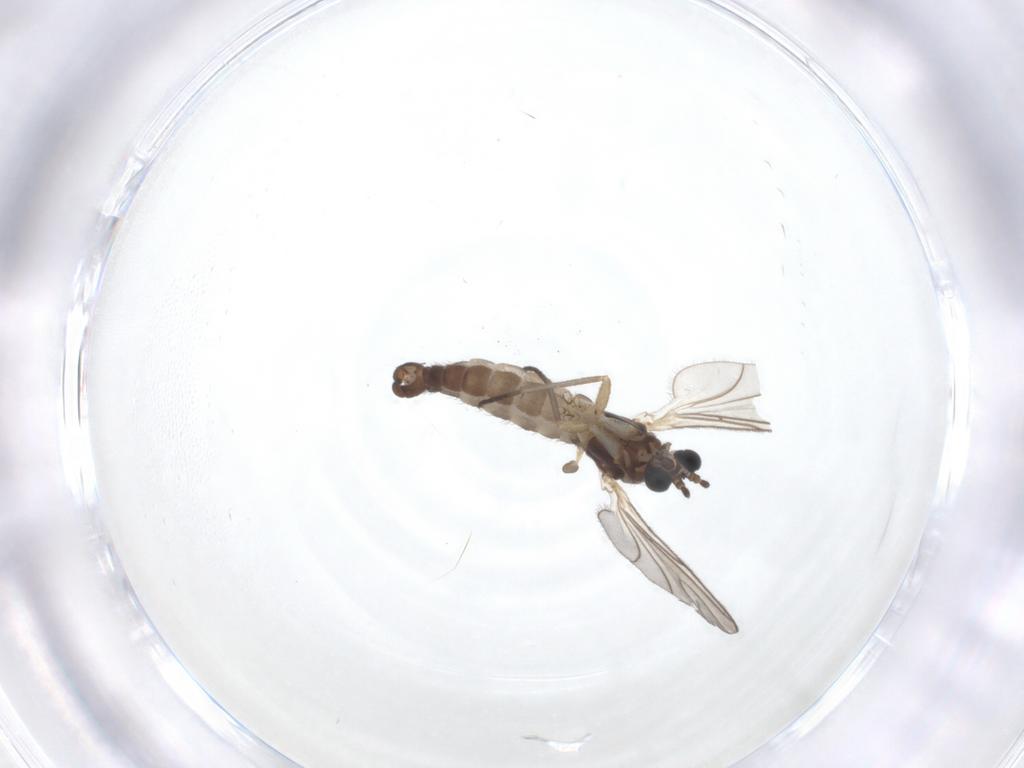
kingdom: Animalia
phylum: Arthropoda
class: Insecta
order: Diptera
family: Sciaridae
